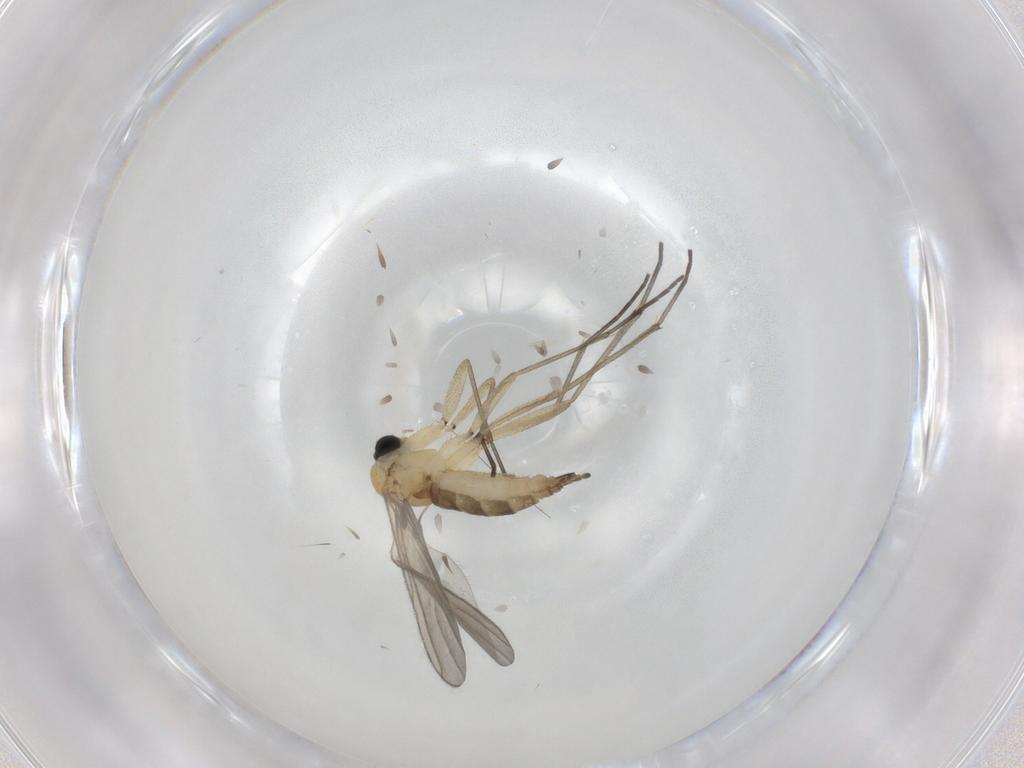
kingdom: Animalia
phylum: Arthropoda
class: Insecta
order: Diptera
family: Sciaridae
